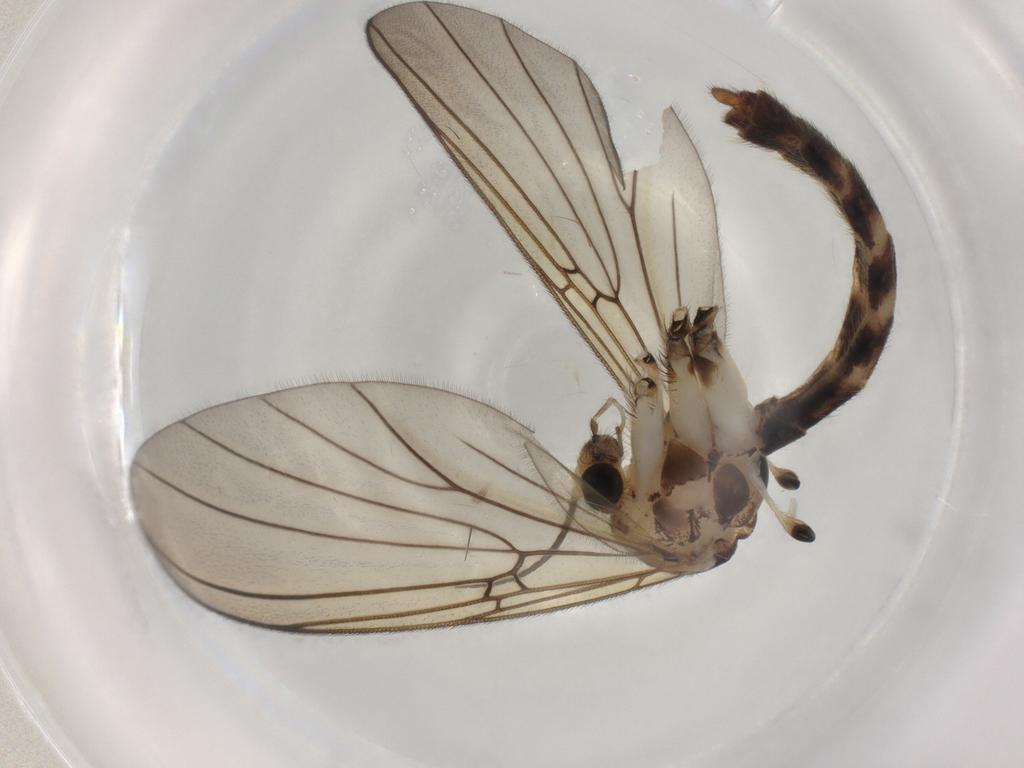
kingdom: Animalia
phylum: Arthropoda
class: Insecta
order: Diptera
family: Mycetophilidae
